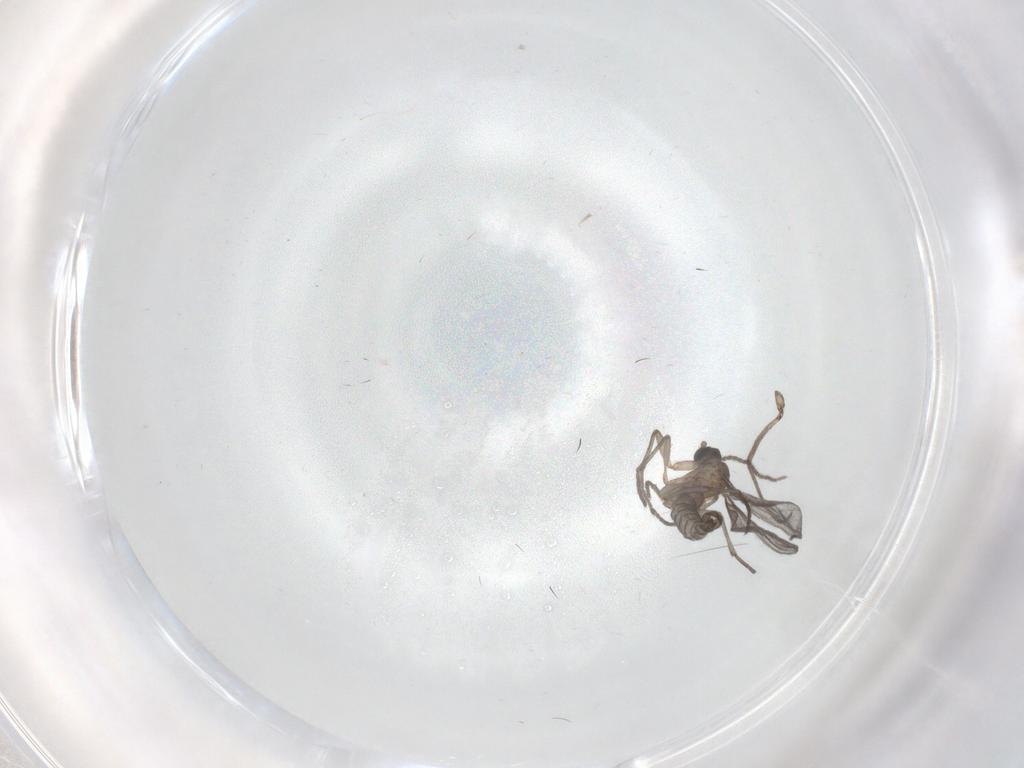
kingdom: Animalia
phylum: Arthropoda
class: Insecta
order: Diptera
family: Sciaridae
